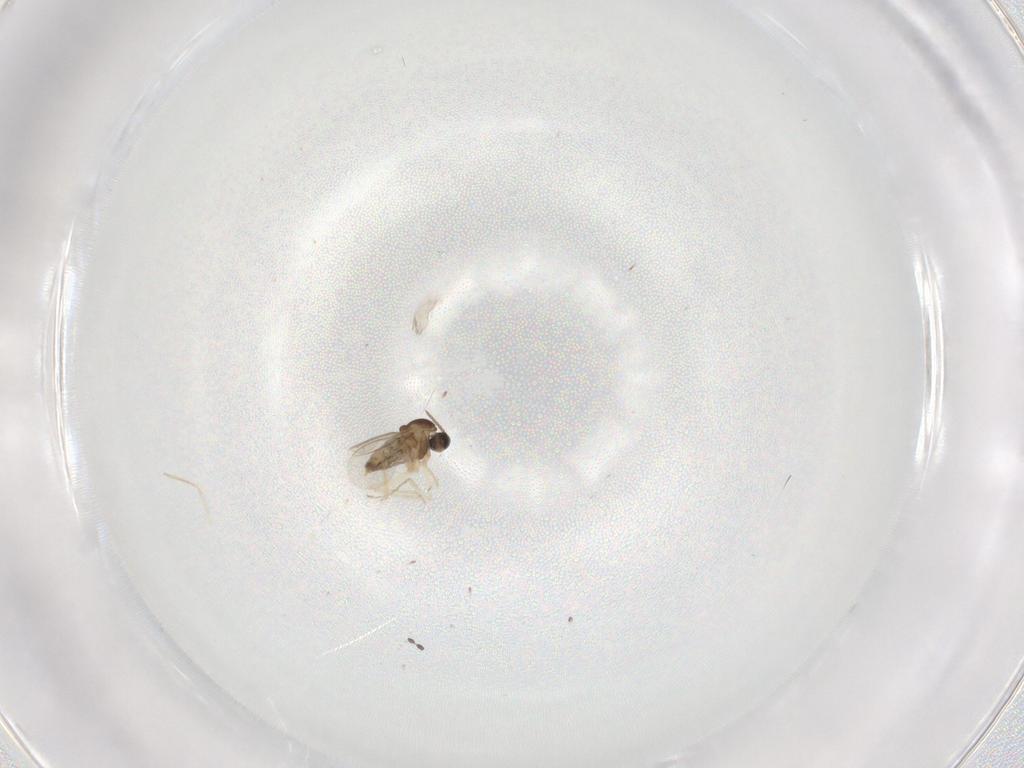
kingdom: Animalia
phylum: Arthropoda
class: Insecta
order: Diptera
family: Cecidomyiidae
